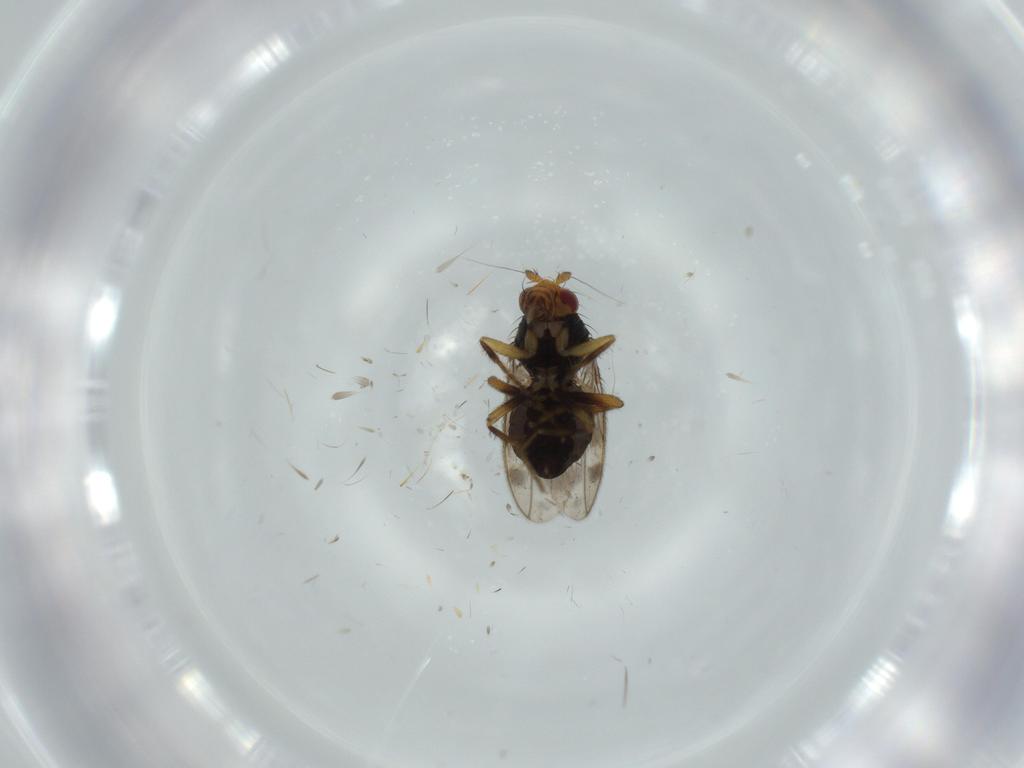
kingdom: Animalia
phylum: Arthropoda
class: Insecta
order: Diptera
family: Sphaeroceridae
